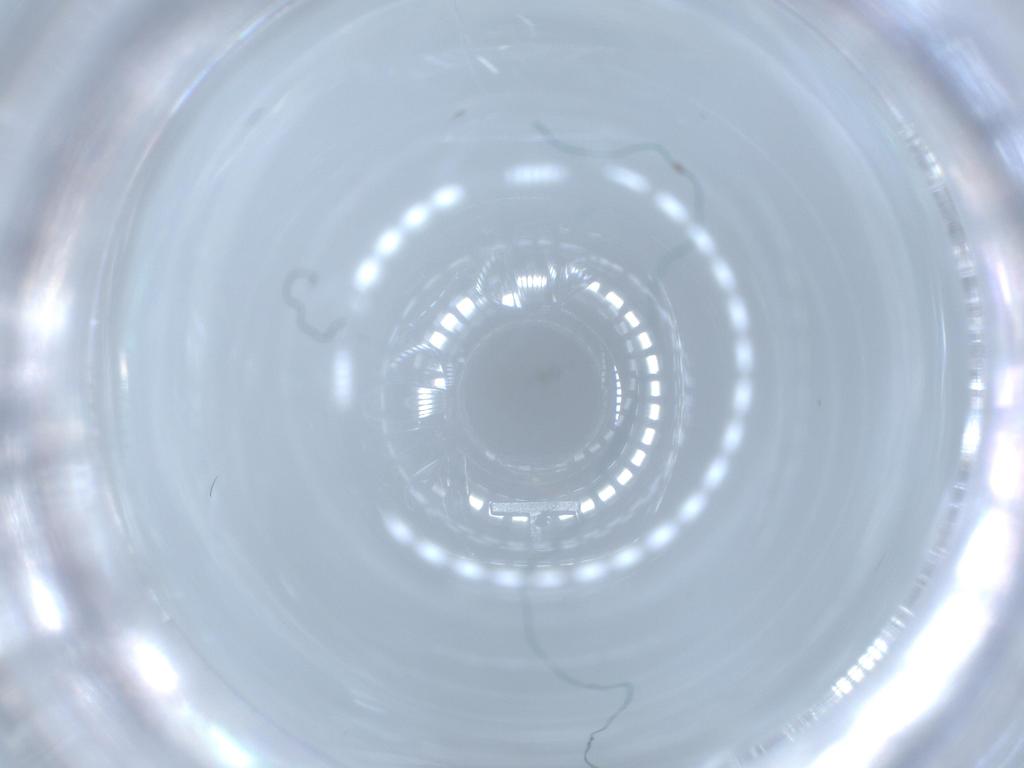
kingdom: Animalia
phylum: Arthropoda
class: Insecta
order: Diptera
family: Cecidomyiidae
